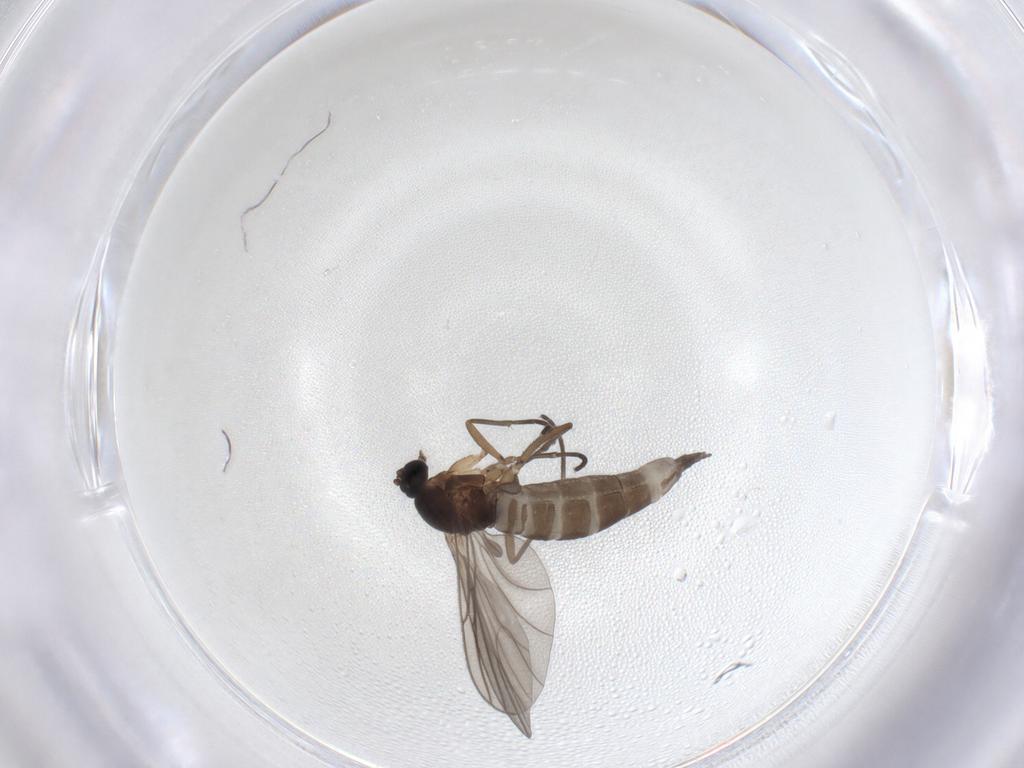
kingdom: Animalia
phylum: Arthropoda
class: Insecta
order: Diptera
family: Sciaridae
